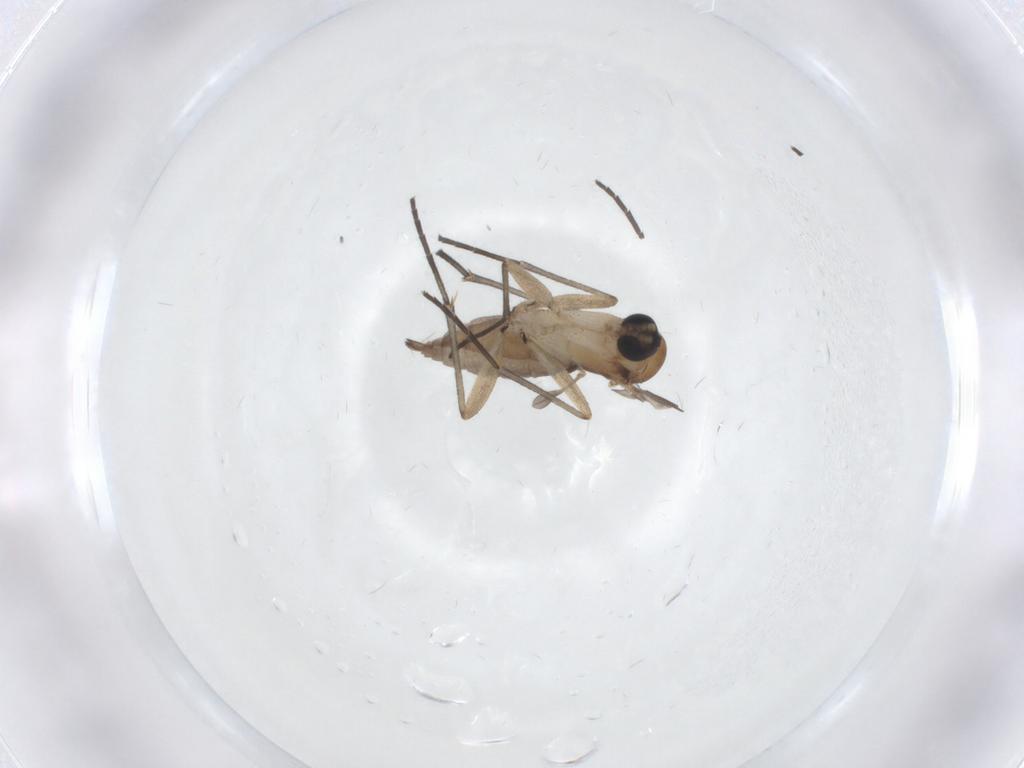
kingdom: Animalia
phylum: Arthropoda
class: Insecta
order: Diptera
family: Sciaridae
